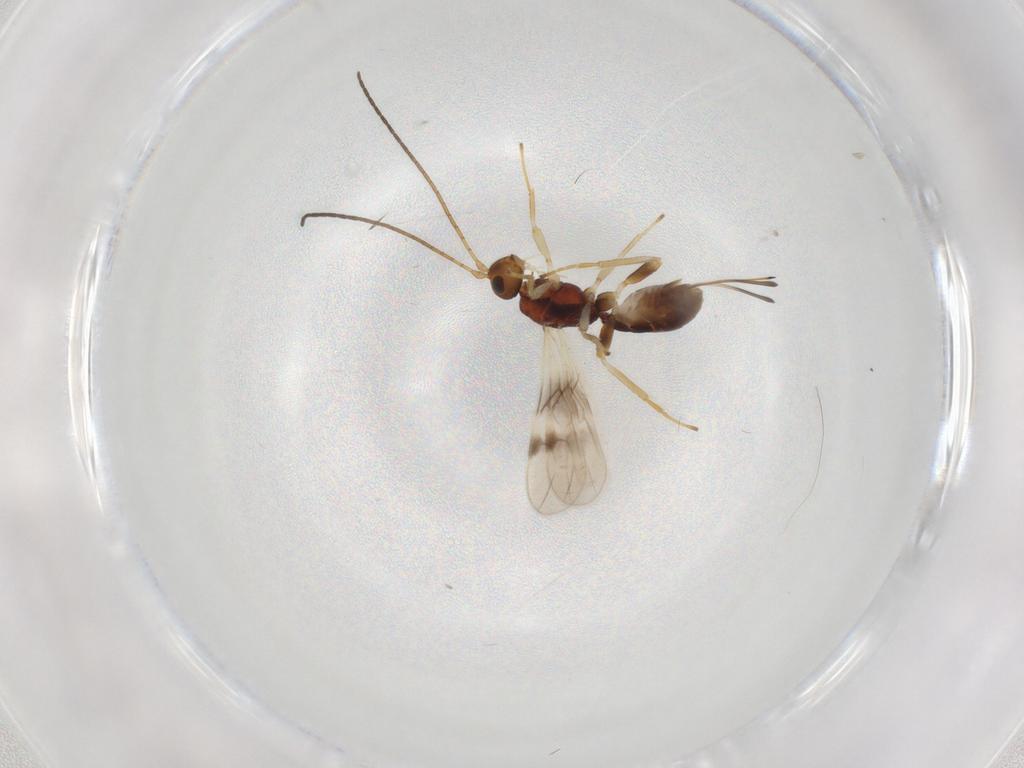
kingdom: Animalia
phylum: Arthropoda
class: Insecta
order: Hymenoptera
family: Braconidae
